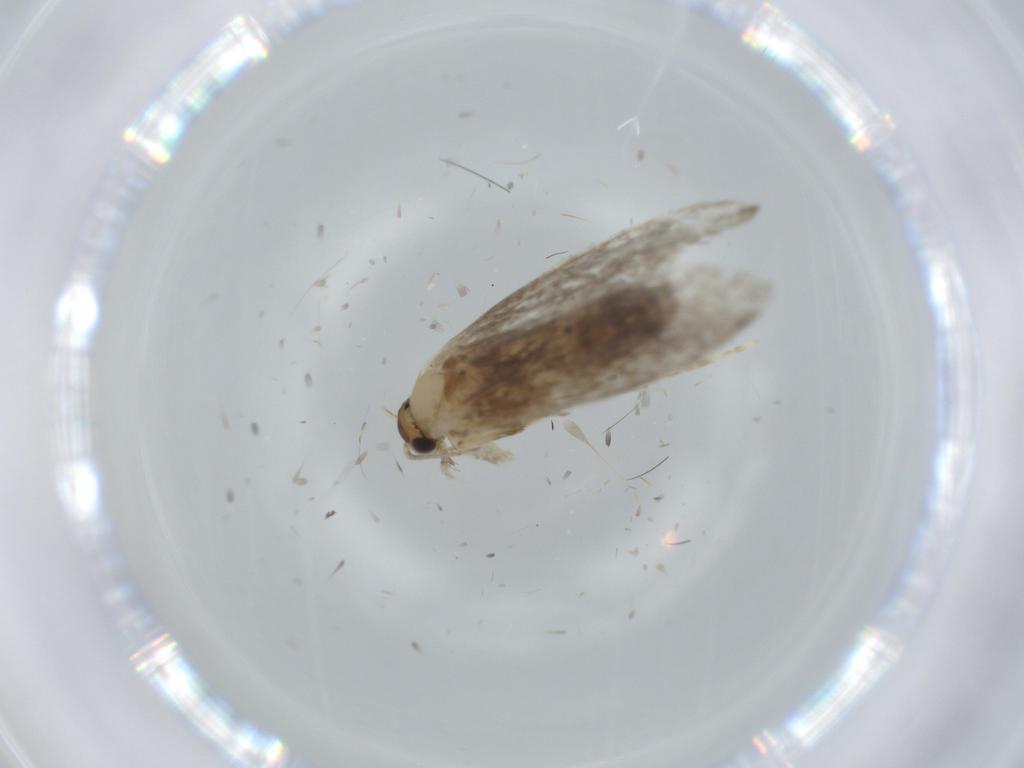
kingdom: Animalia
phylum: Arthropoda
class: Insecta
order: Lepidoptera
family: Tineidae
